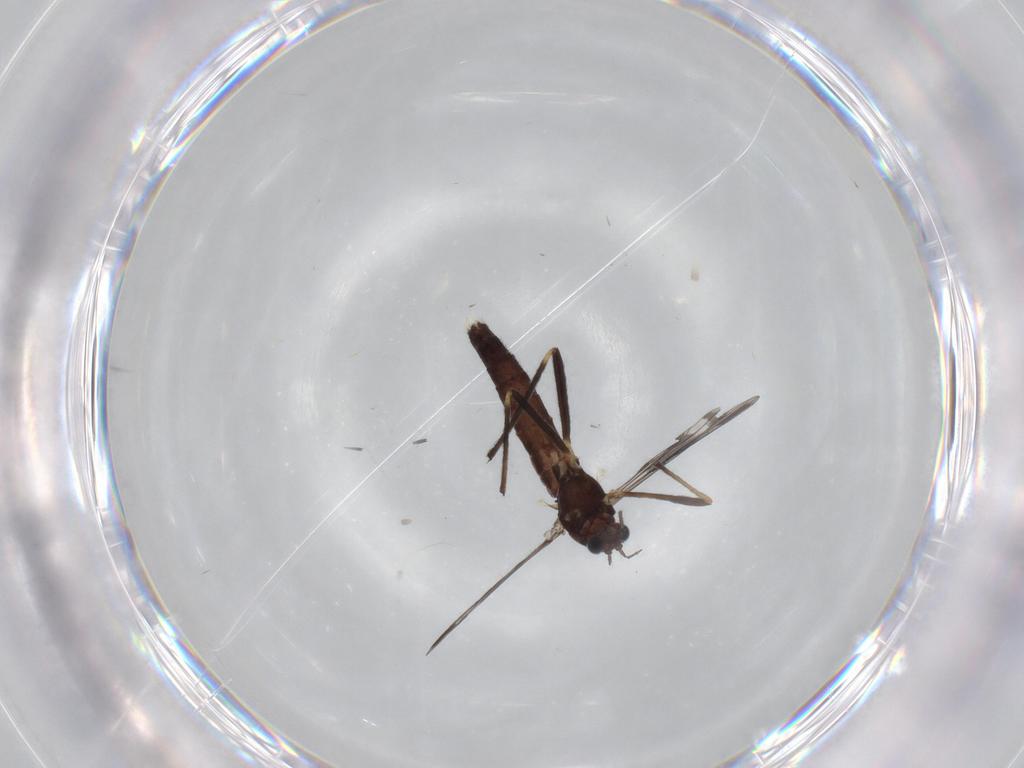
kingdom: Animalia
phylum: Arthropoda
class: Insecta
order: Diptera
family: Chironomidae
